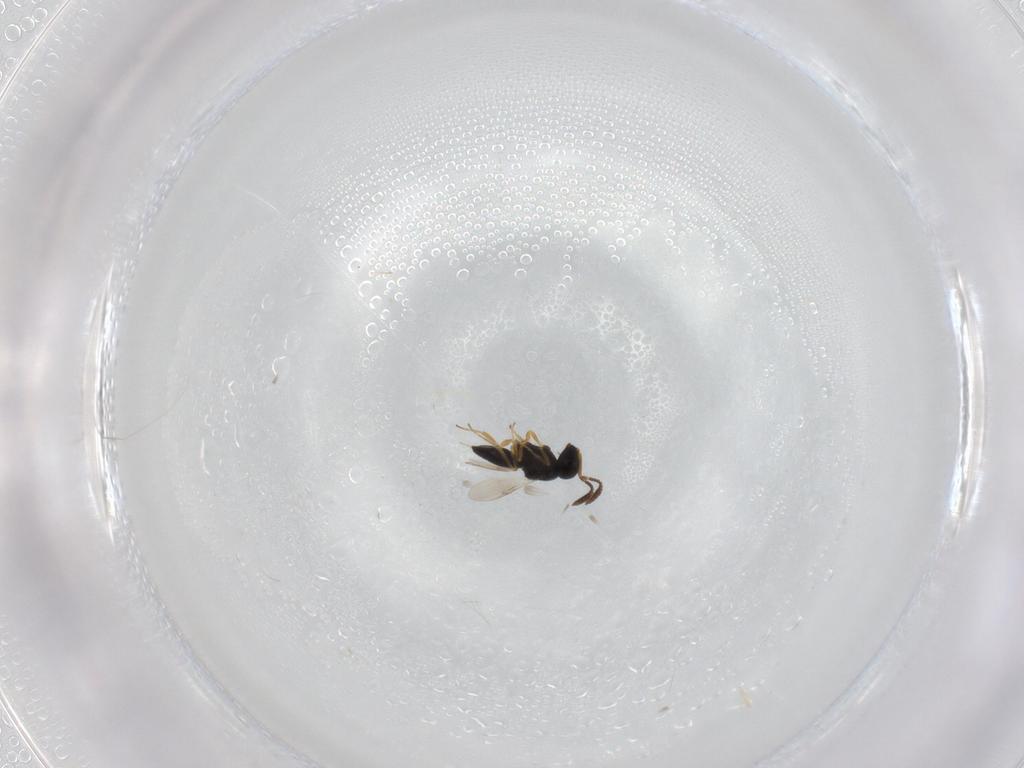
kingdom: Animalia
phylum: Arthropoda
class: Insecta
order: Hymenoptera
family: Scelionidae
